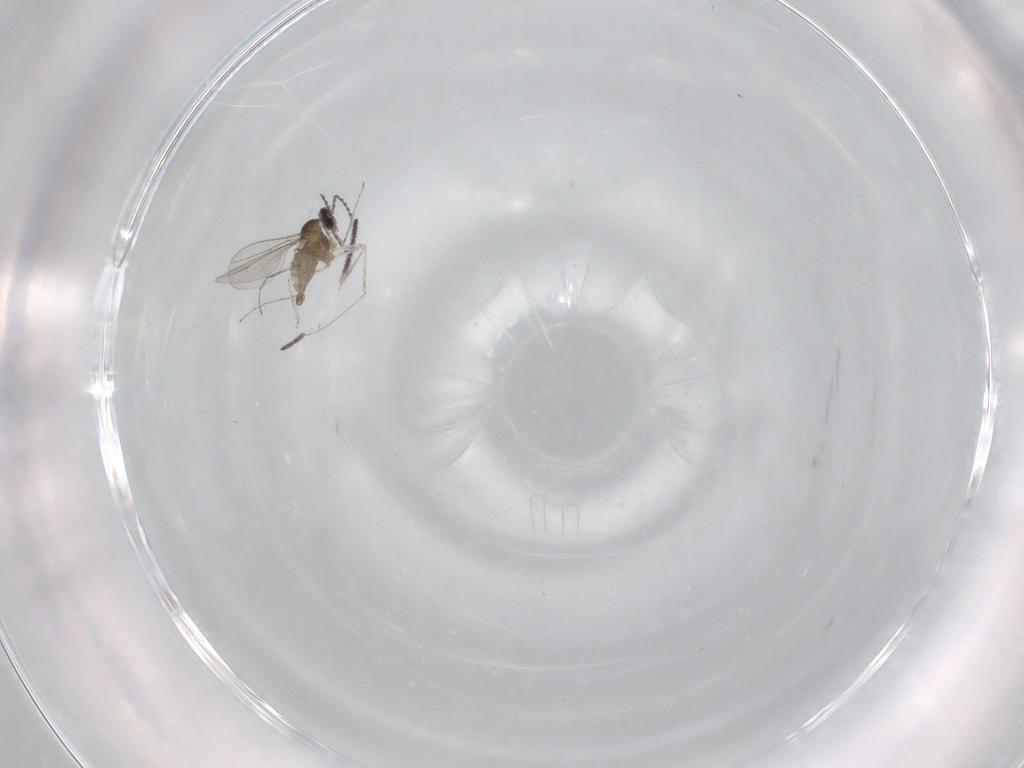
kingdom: Animalia
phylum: Arthropoda
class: Insecta
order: Diptera
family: Cecidomyiidae
